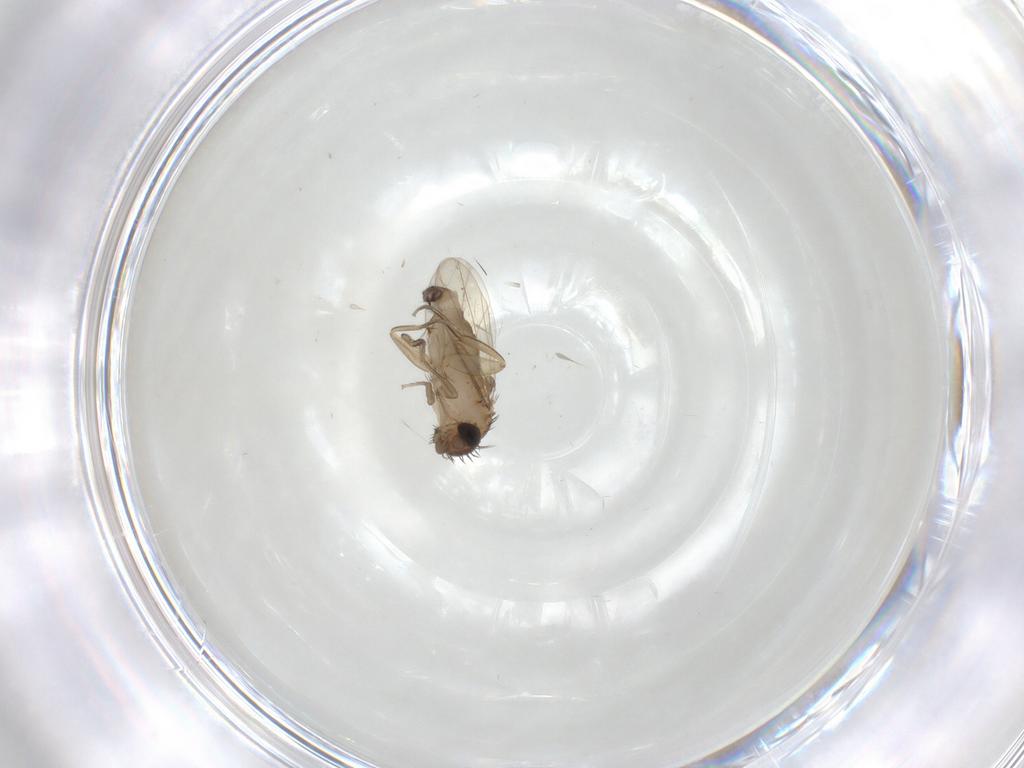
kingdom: Animalia
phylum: Arthropoda
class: Insecta
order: Diptera
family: Phoridae
